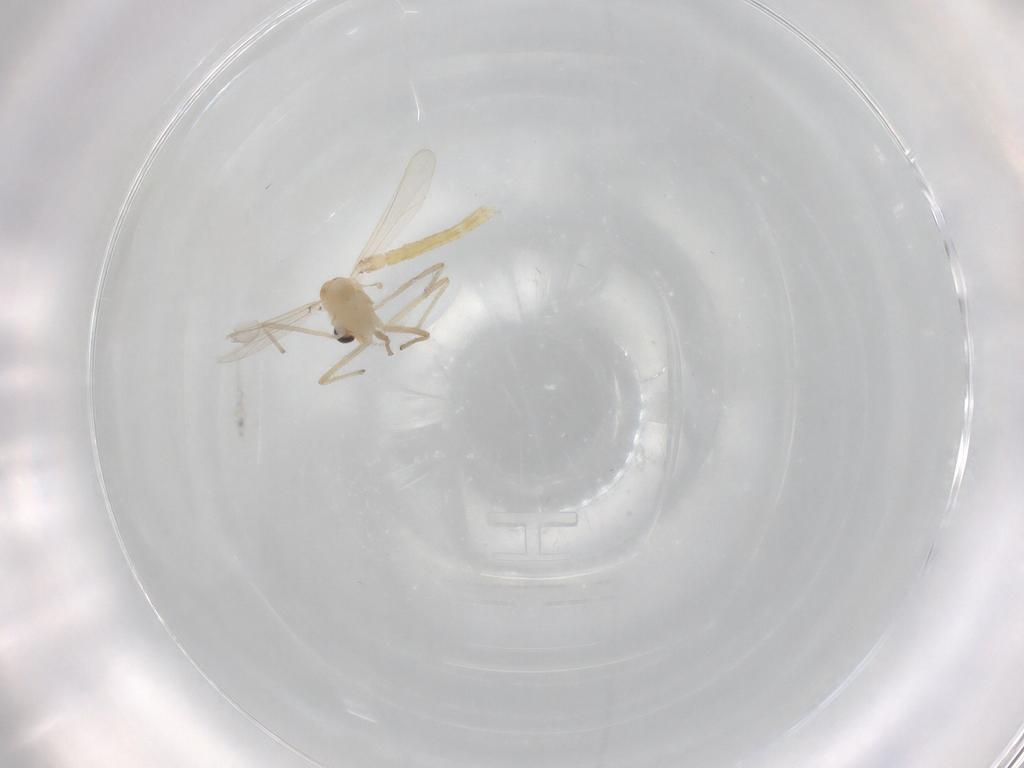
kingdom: Animalia
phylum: Arthropoda
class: Insecta
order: Diptera
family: Chironomidae
